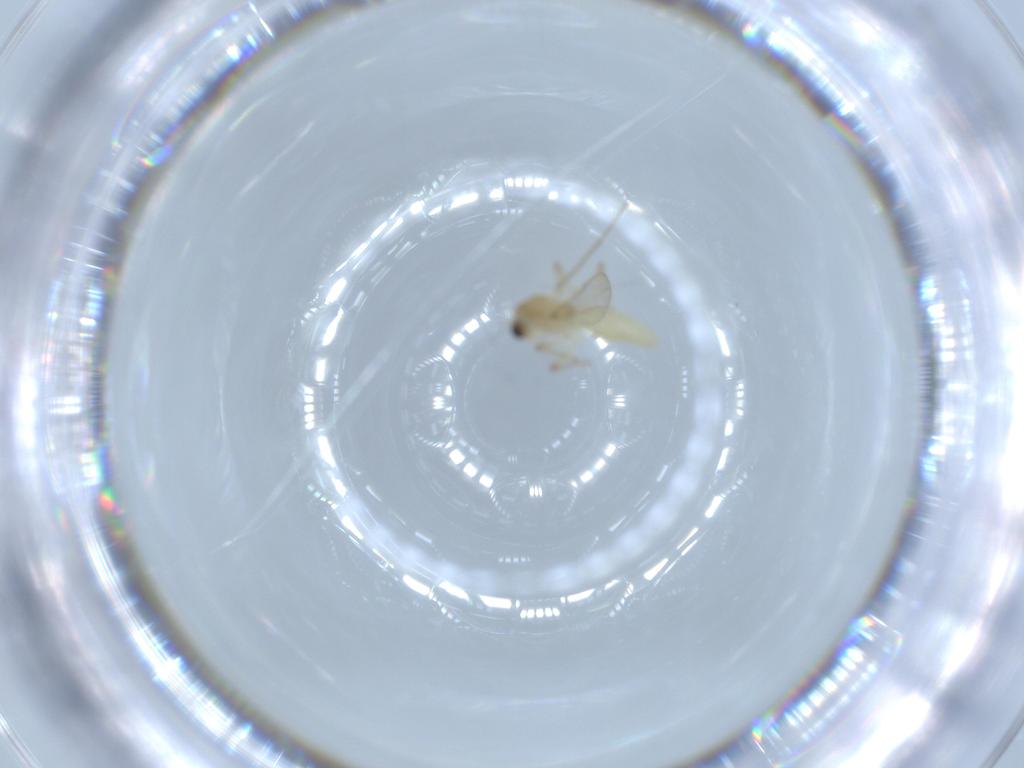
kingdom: Animalia
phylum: Arthropoda
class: Insecta
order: Diptera
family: Chironomidae
